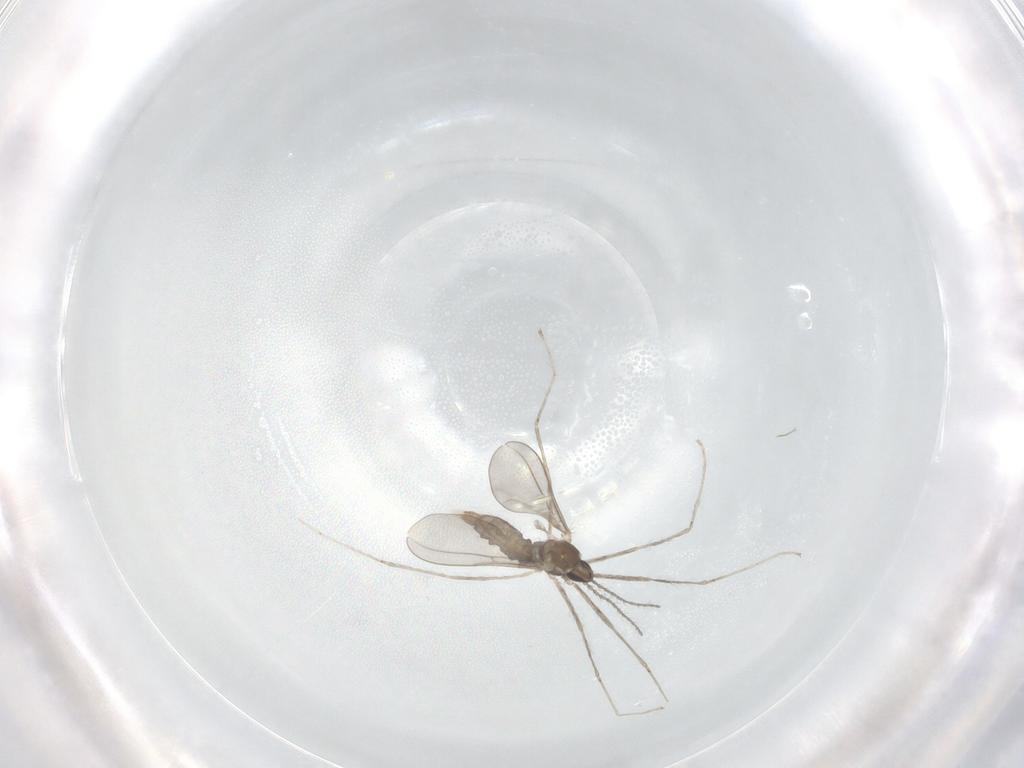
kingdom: Animalia
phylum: Arthropoda
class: Insecta
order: Diptera
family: Cecidomyiidae
